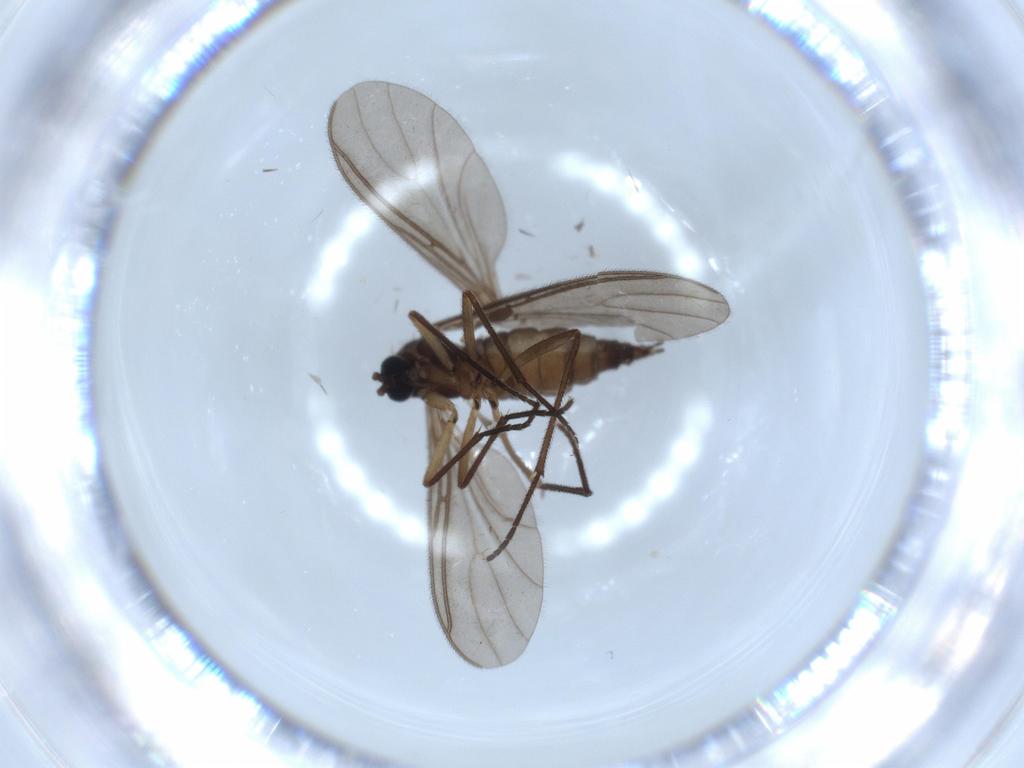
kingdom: Animalia
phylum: Arthropoda
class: Insecta
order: Diptera
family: Sciaridae
